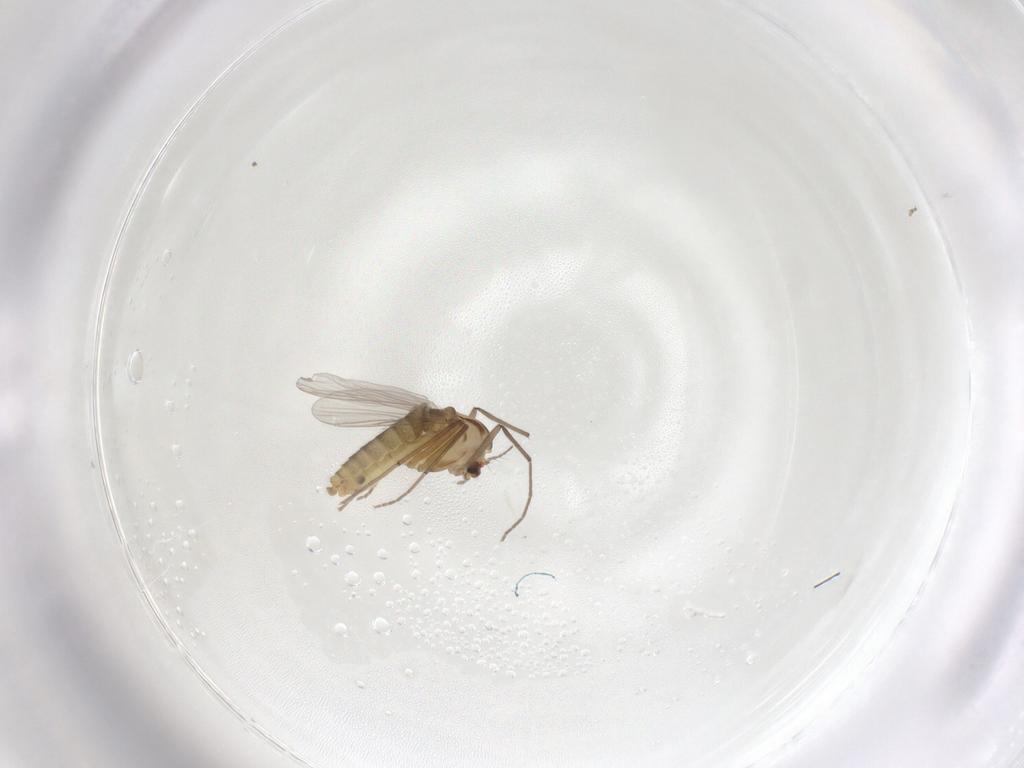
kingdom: Animalia
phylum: Arthropoda
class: Insecta
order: Diptera
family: Chironomidae
